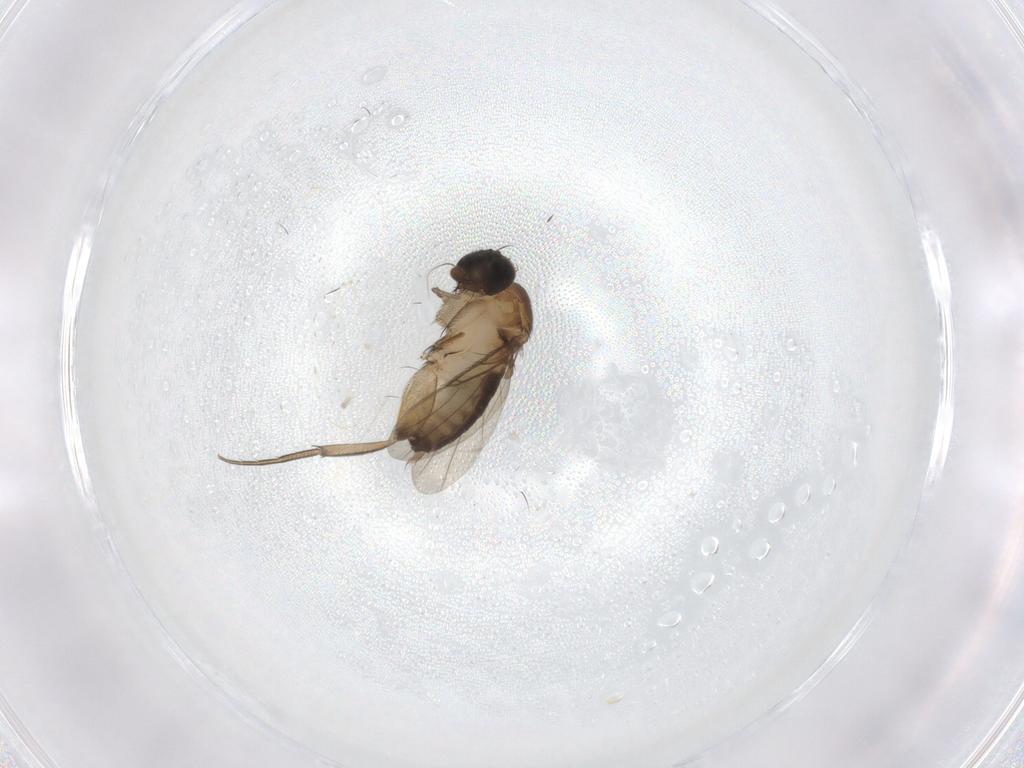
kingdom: Animalia
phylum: Arthropoda
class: Insecta
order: Diptera
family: Phoridae
